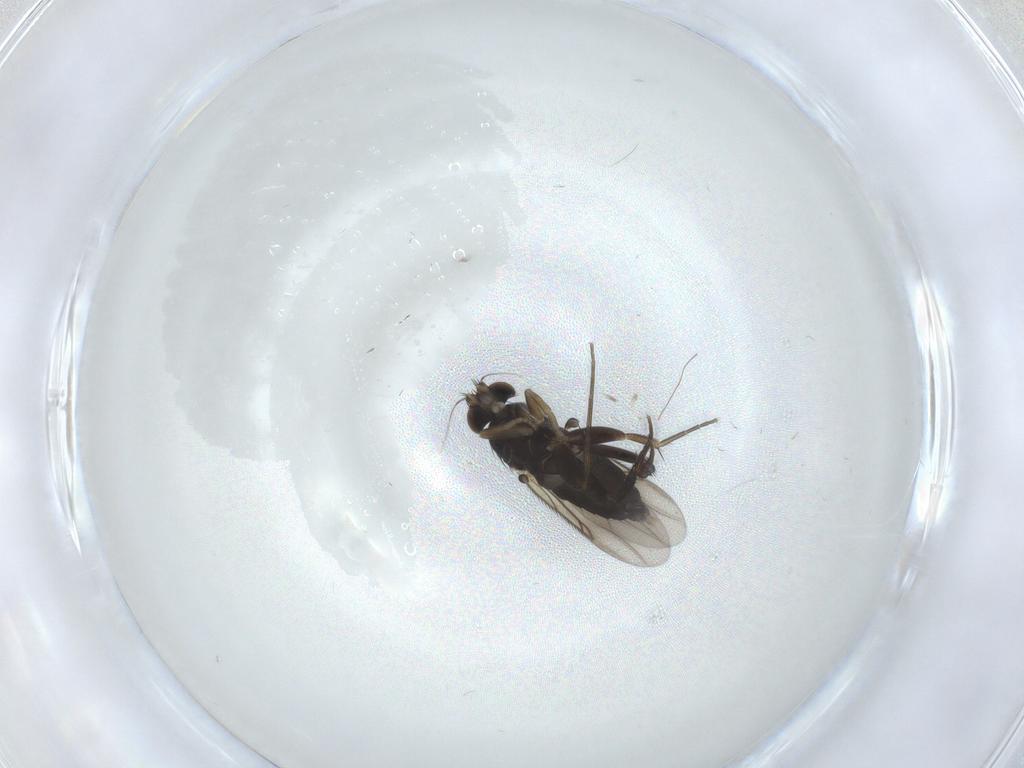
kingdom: Animalia
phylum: Arthropoda
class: Insecta
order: Diptera
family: Phoridae
